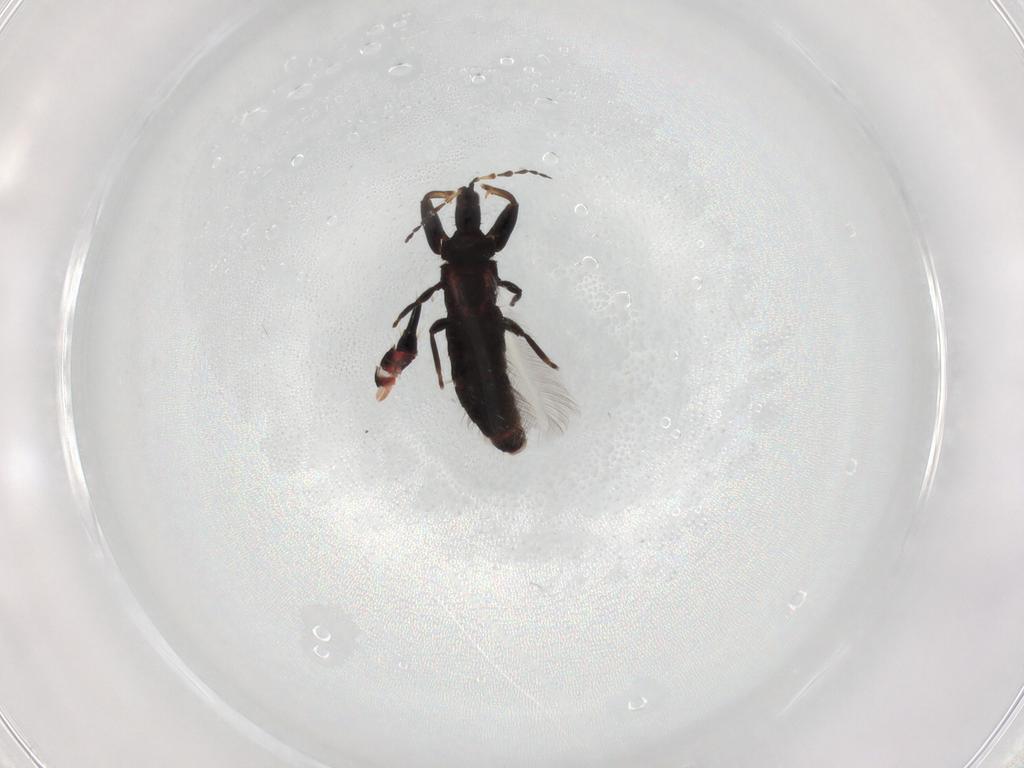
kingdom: Animalia
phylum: Arthropoda
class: Insecta
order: Thysanoptera
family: Phlaeothripidae
